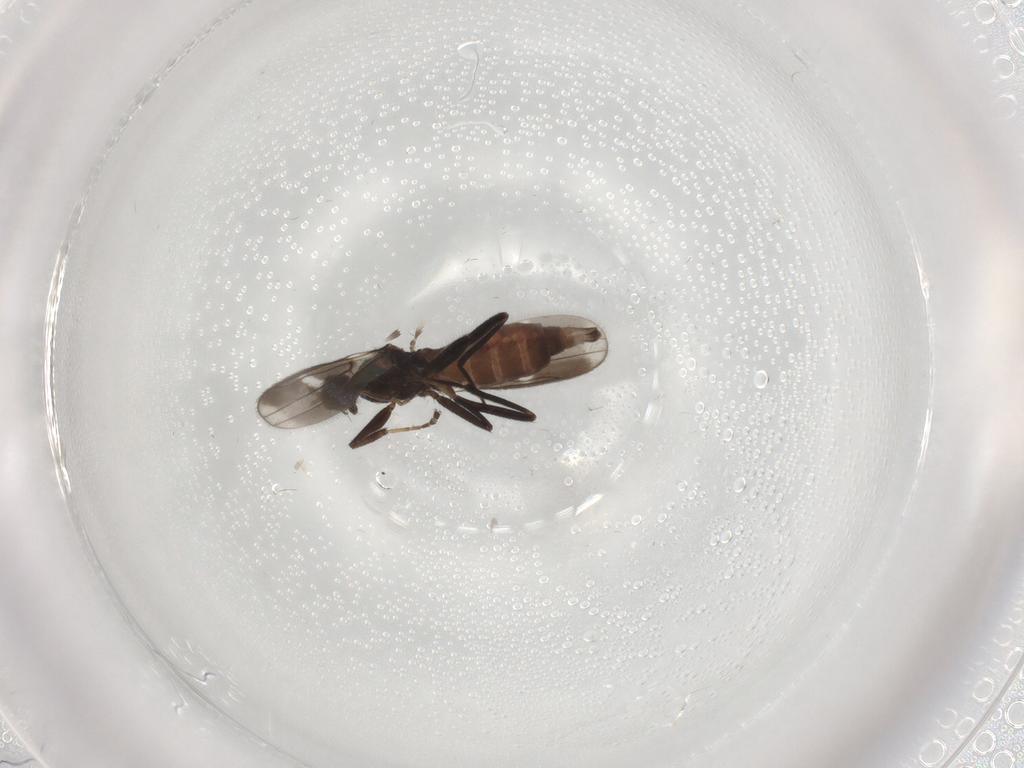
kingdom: Animalia
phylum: Arthropoda
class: Insecta
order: Diptera
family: Hybotidae
